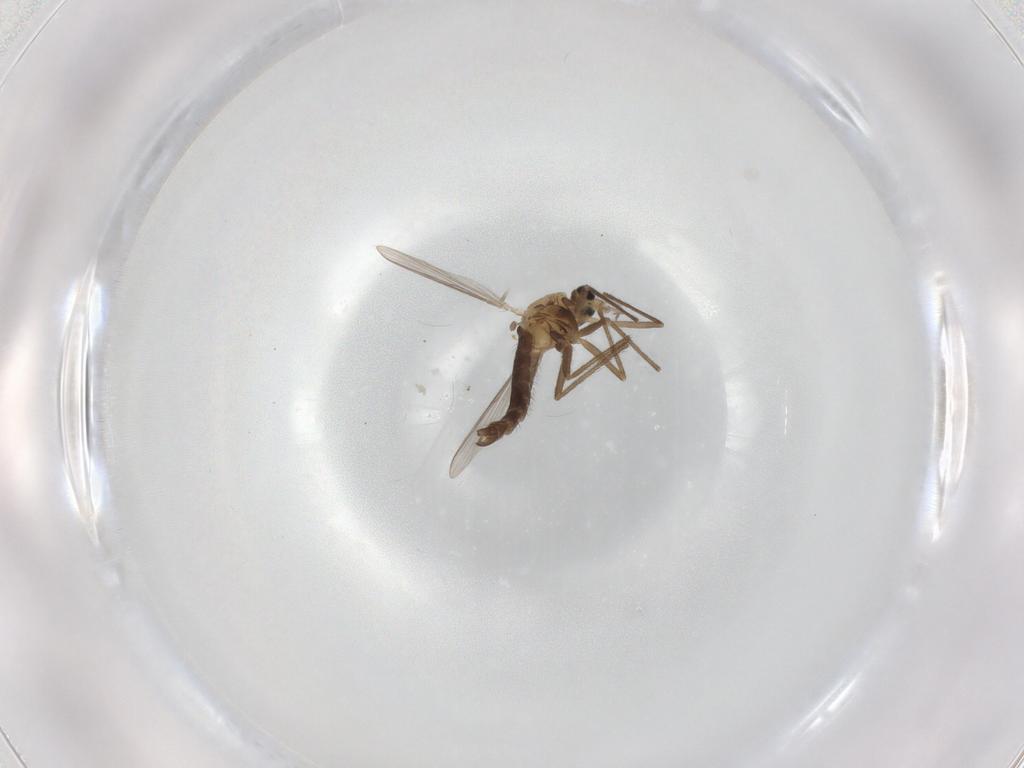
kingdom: Animalia
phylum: Arthropoda
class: Insecta
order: Diptera
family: Chironomidae
